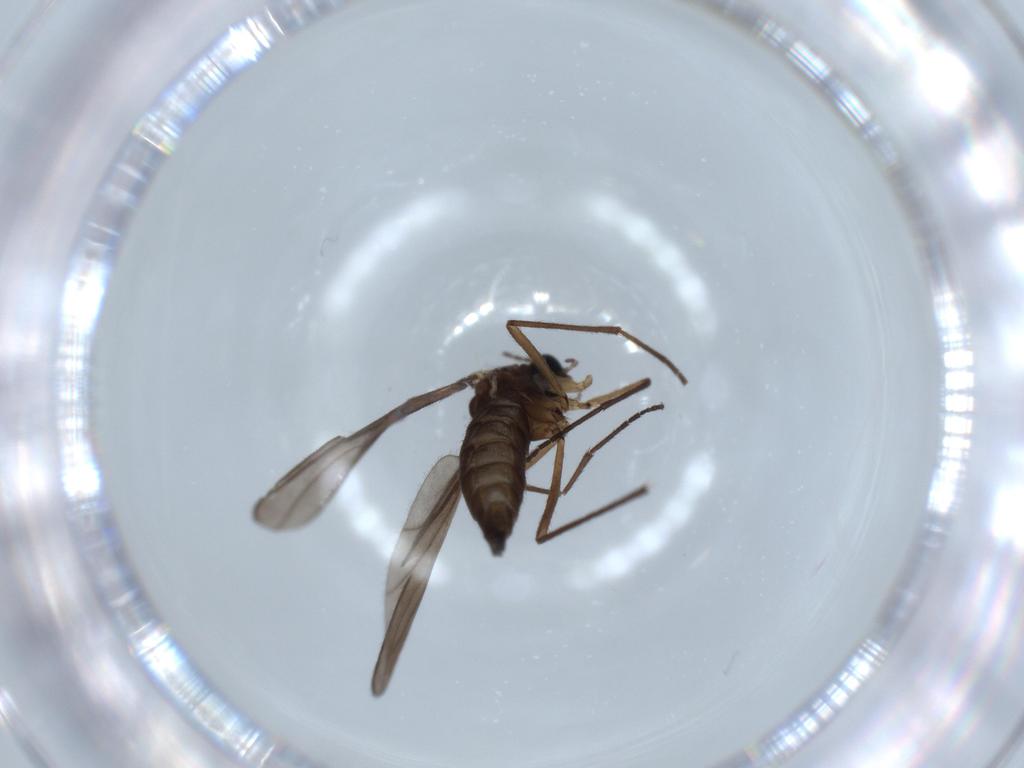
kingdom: Animalia
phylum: Arthropoda
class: Insecta
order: Diptera
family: Sciaridae
